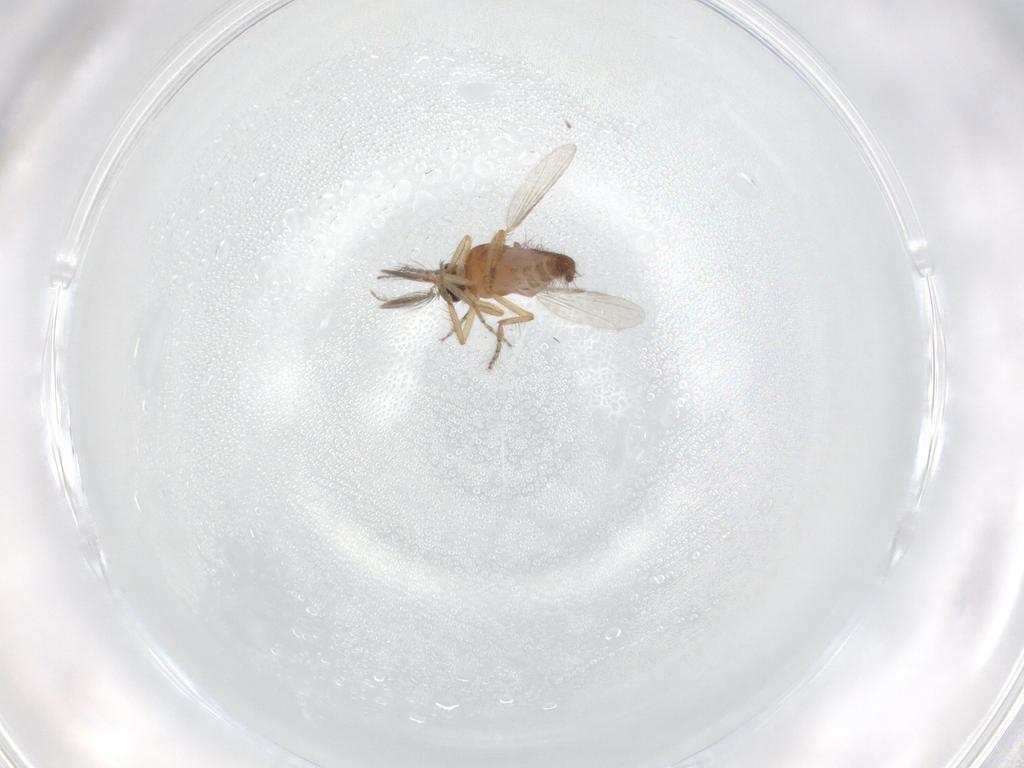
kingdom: Animalia
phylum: Arthropoda
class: Insecta
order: Diptera
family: Ceratopogonidae
